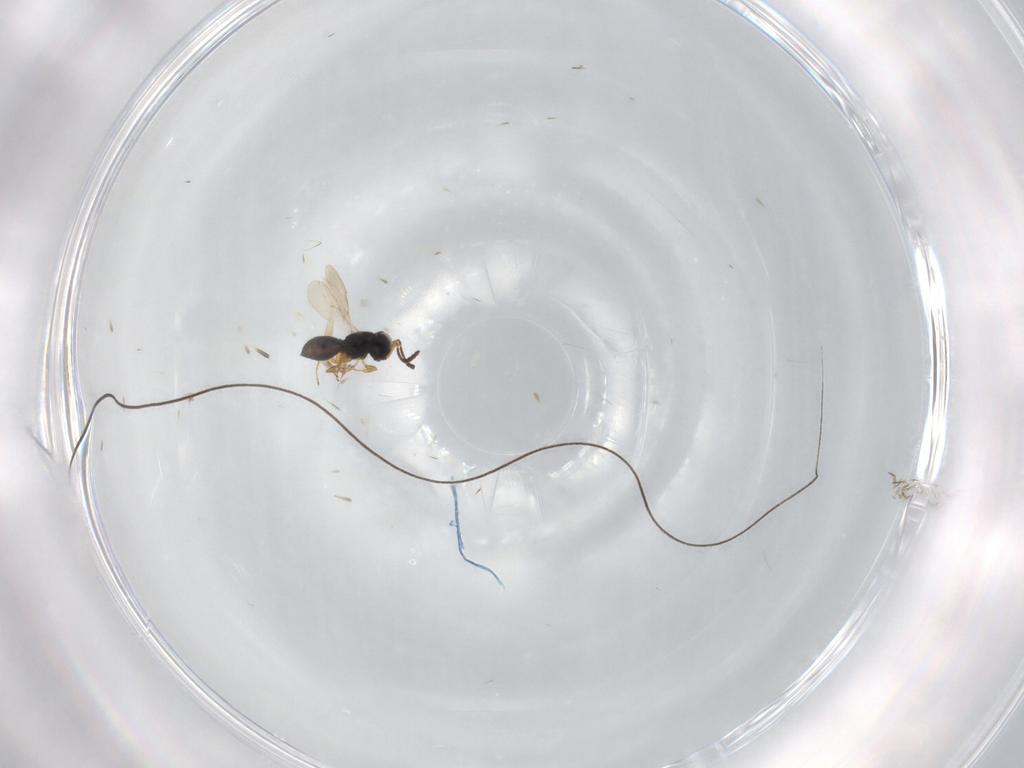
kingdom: Animalia
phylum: Arthropoda
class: Insecta
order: Hymenoptera
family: Scelionidae
